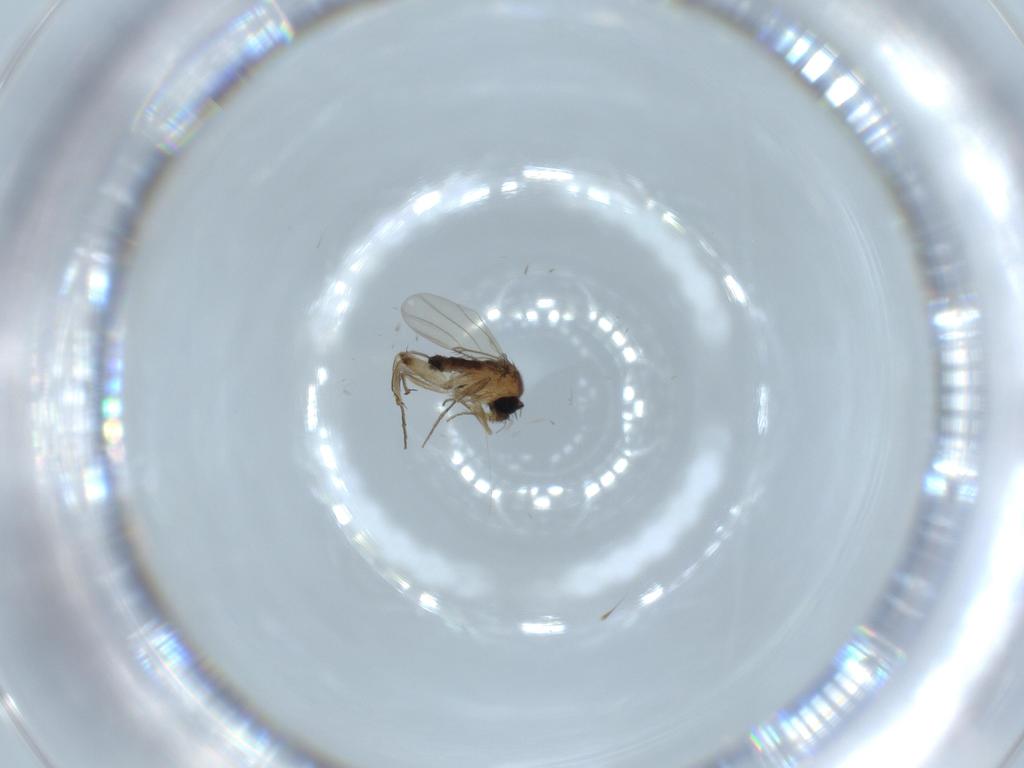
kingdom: Animalia
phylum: Arthropoda
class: Insecta
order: Diptera
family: Phoridae
